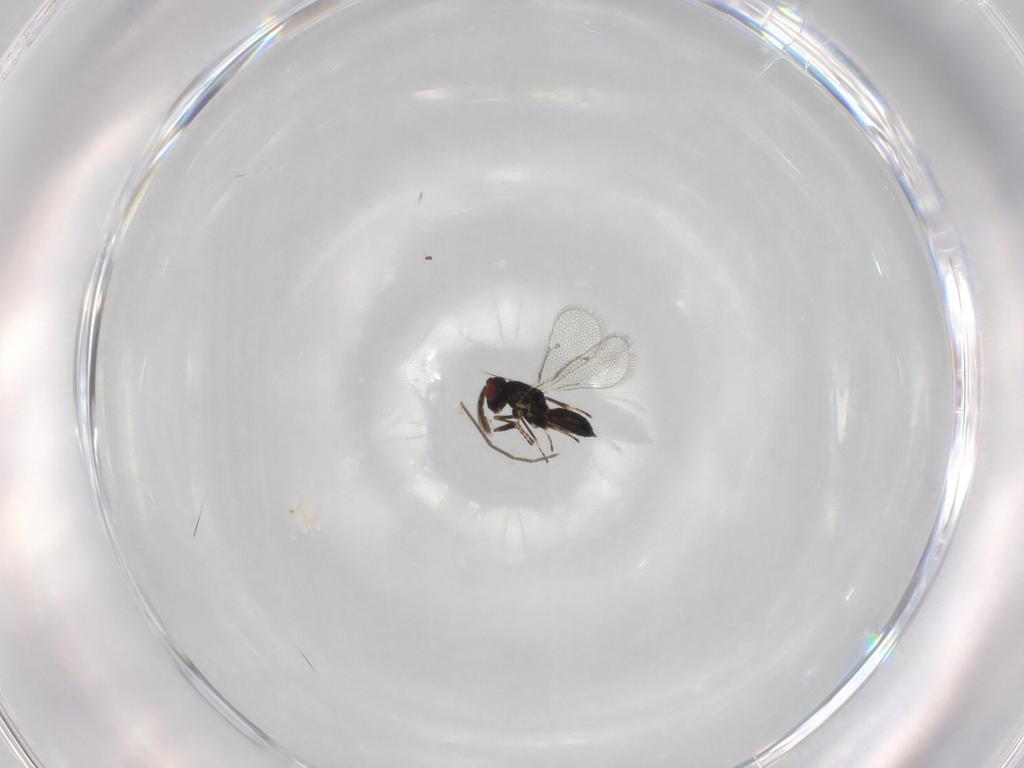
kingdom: Animalia
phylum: Arthropoda
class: Insecta
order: Hymenoptera
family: Eulophidae
